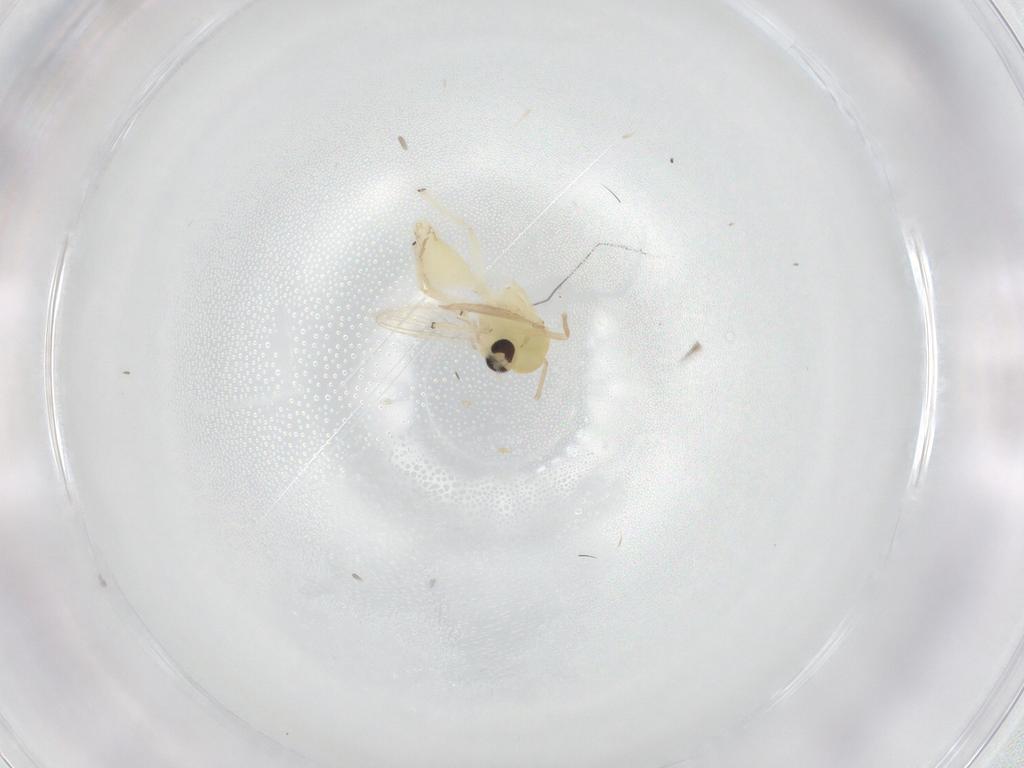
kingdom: Animalia
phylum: Arthropoda
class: Insecta
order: Diptera
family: Chironomidae
